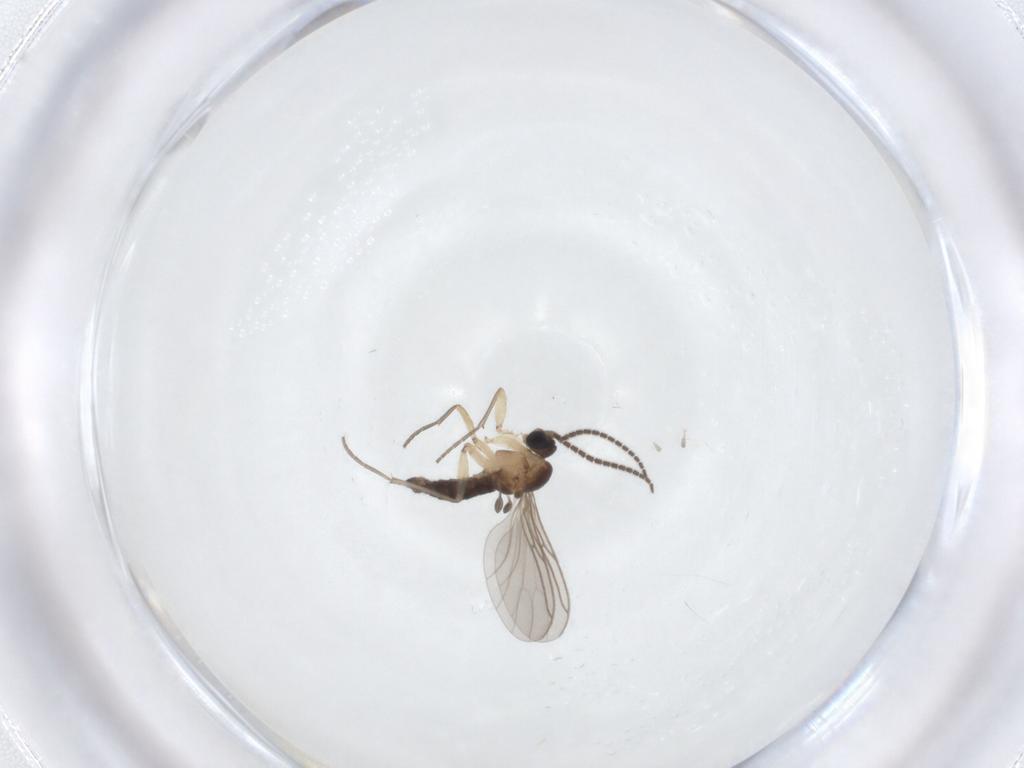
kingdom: Animalia
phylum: Arthropoda
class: Insecta
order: Diptera
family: Sciaridae
